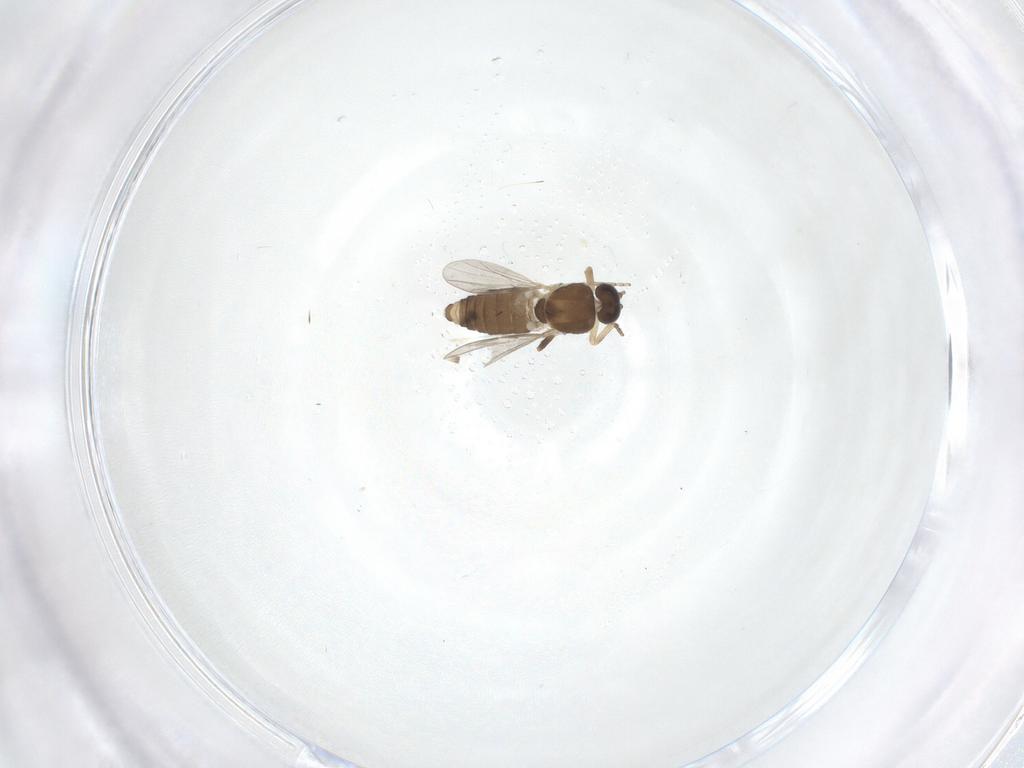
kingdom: Animalia
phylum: Arthropoda
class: Insecta
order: Diptera
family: Ceratopogonidae
